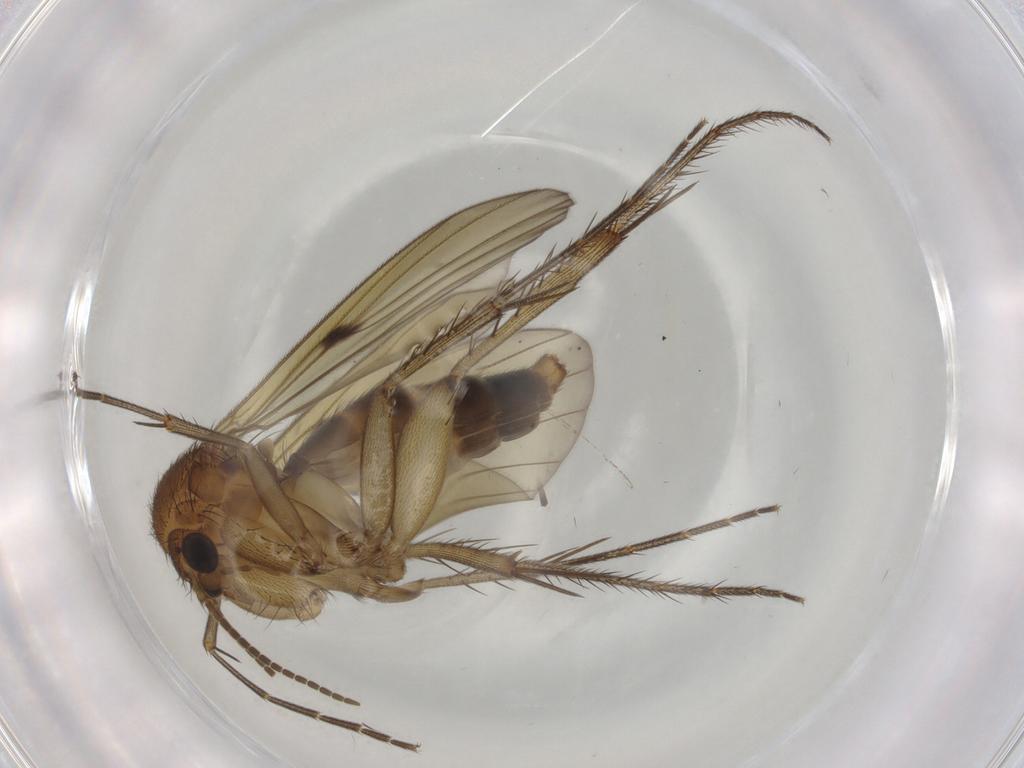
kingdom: Animalia
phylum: Arthropoda
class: Insecta
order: Diptera
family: Mycetophilidae
